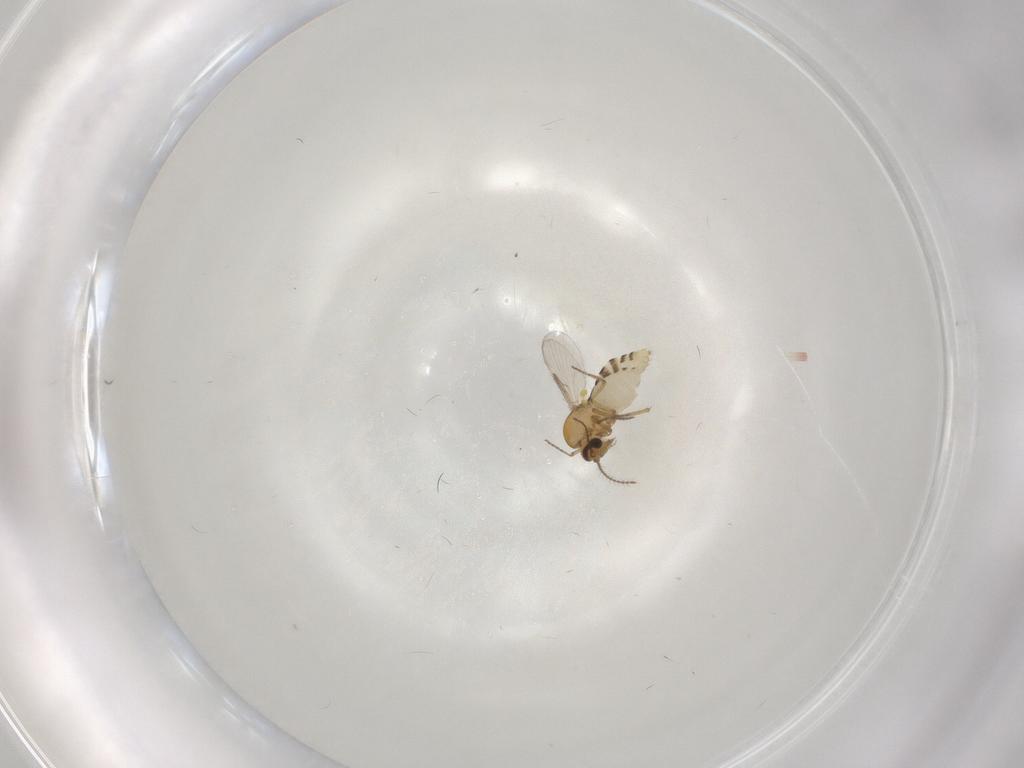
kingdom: Animalia
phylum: Arthropoda
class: Insecta
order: Diptera
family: Ceratopogonidae
